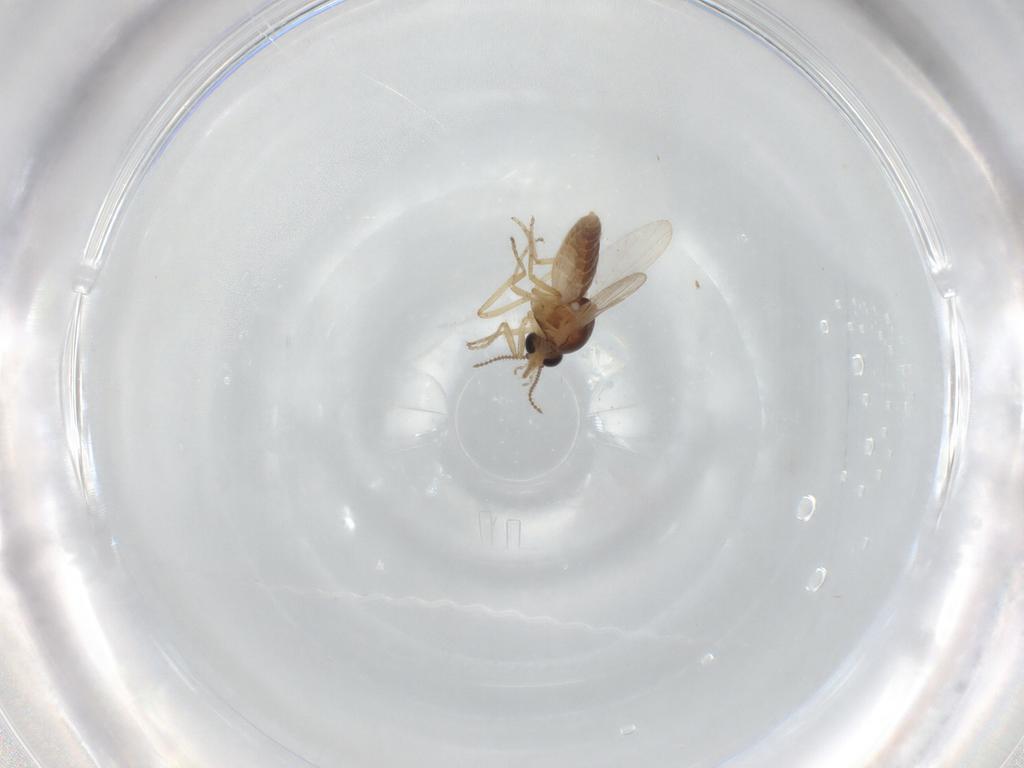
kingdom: Animalia
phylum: Arthropoda
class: Insecta
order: Diptera
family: Ceratopogonidae
